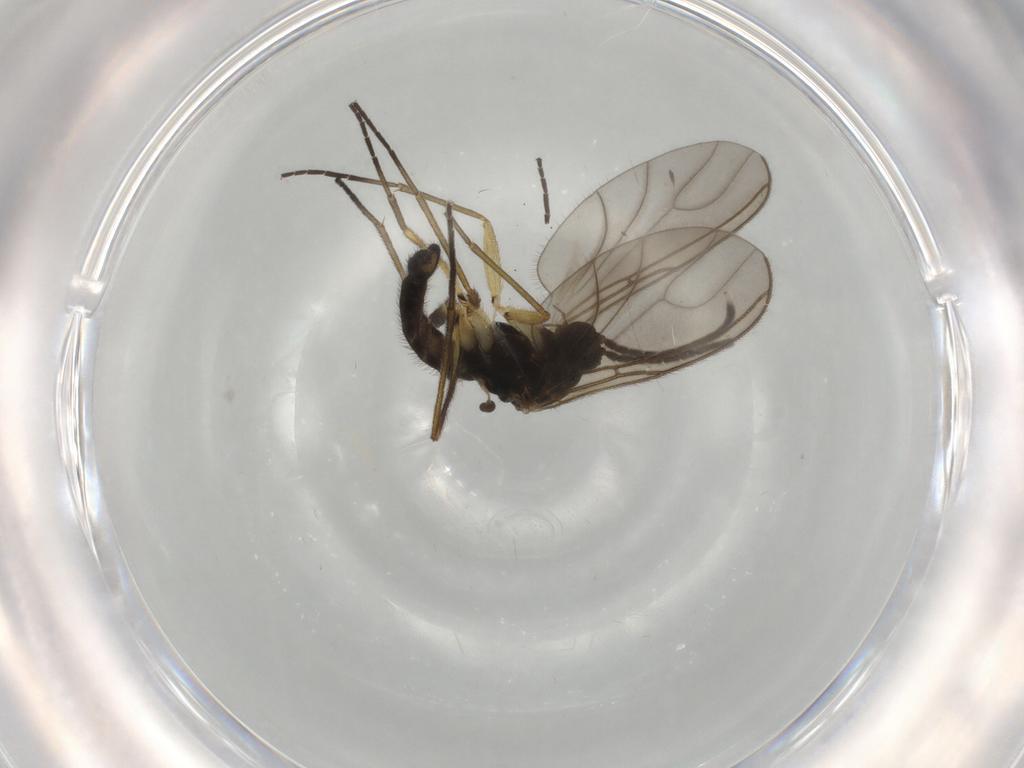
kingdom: Animalia
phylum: Arthropoda
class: Insecta
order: Diptera
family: Sciaridae
